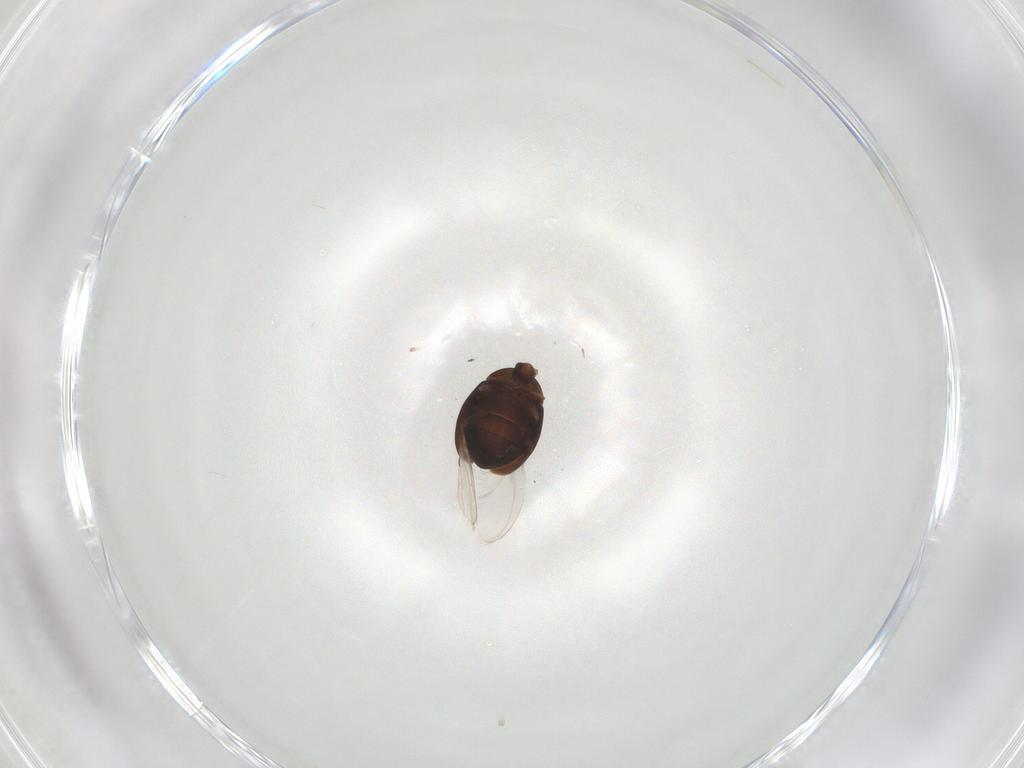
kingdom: Animalia
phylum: Arthropoda
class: Insecta
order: Coleoptera
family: Corylophidae
